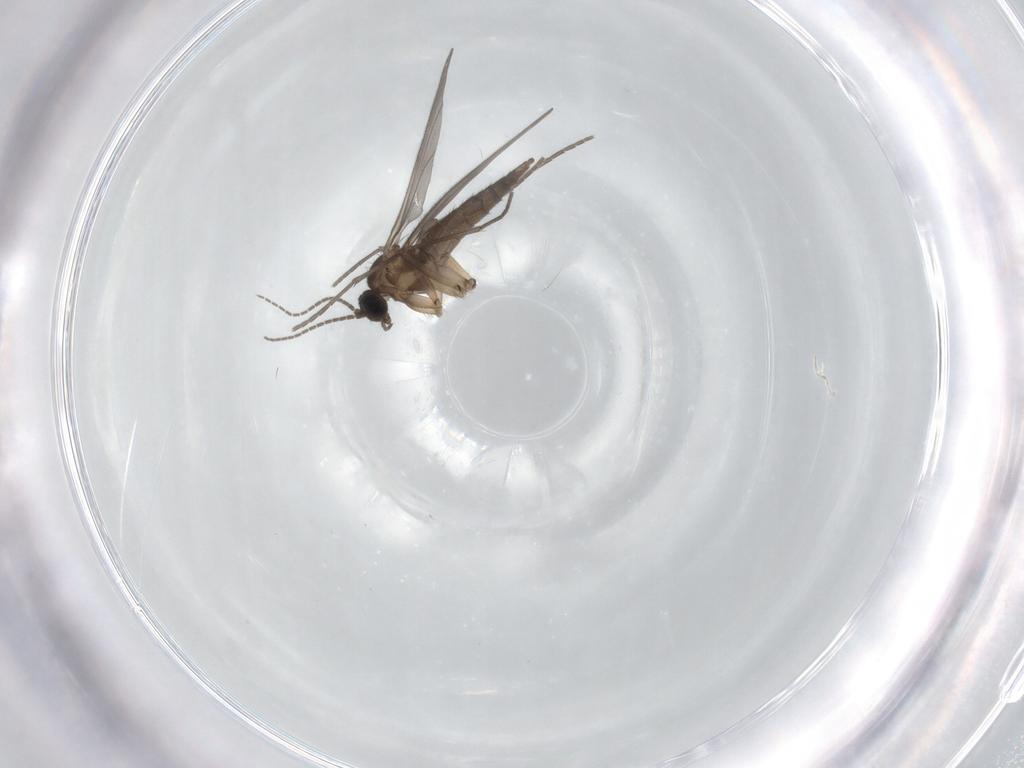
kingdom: Animalia
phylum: Arthropoda
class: Insecta
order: Diptera
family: Sciaridae
